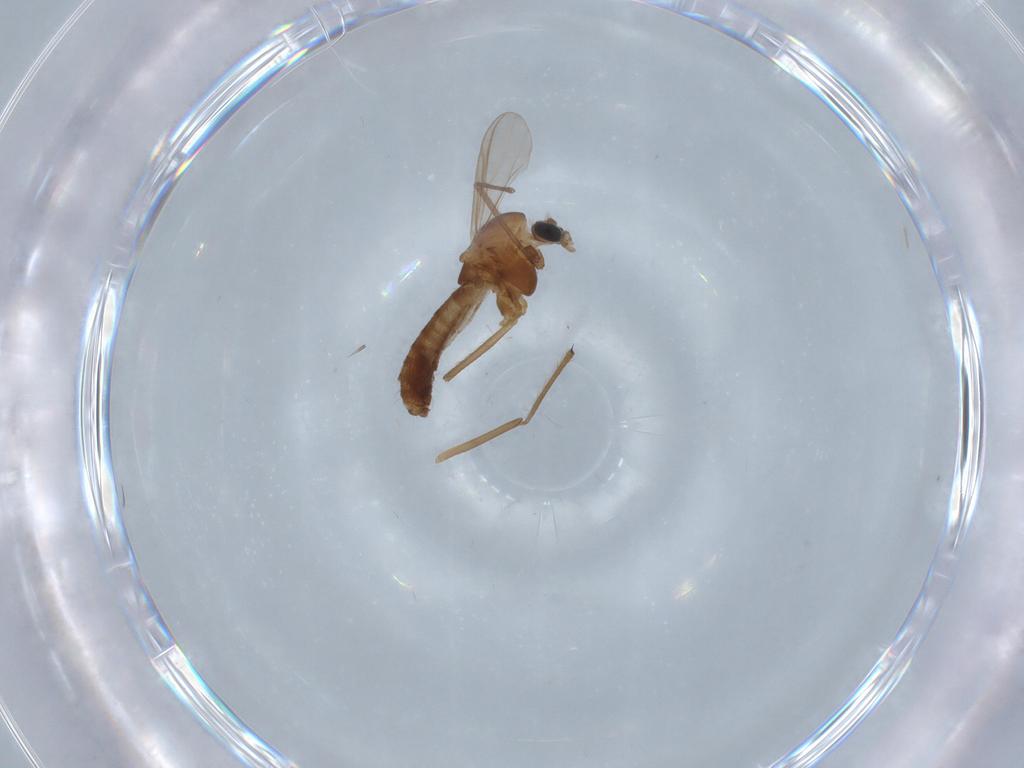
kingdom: Animalia
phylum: Arthropoda
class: Insecta
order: Diptera
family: Chironomidae
